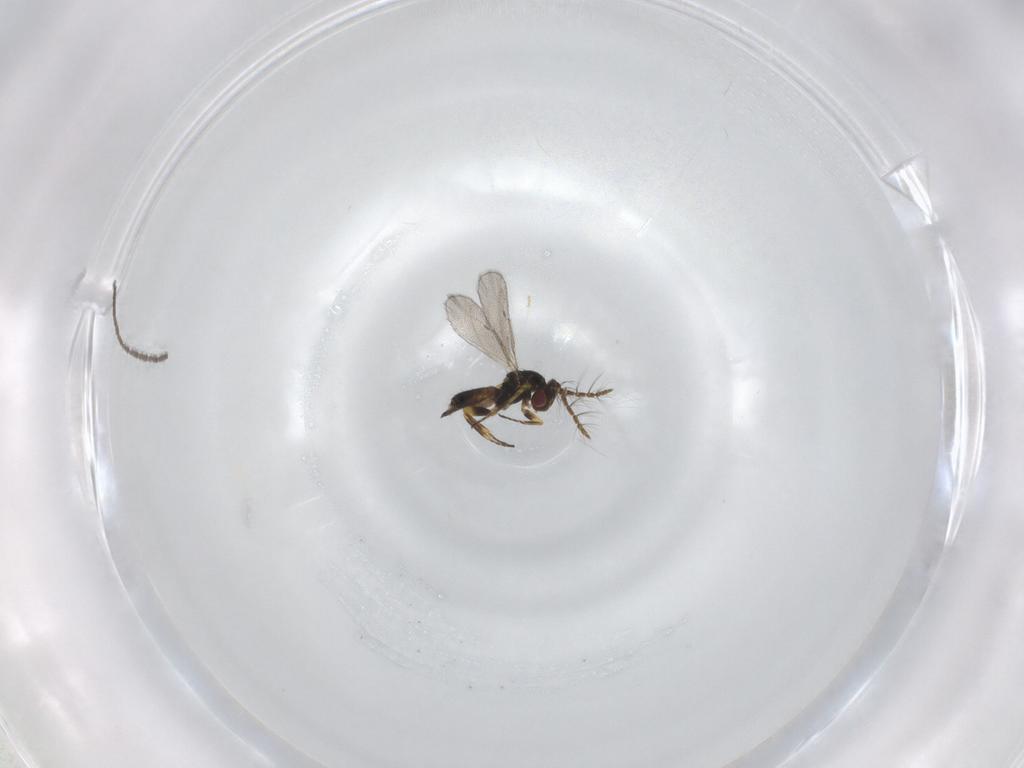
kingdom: Animalia
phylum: Arthropoda
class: Insecta
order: Hymenoptera
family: Eulophidae
